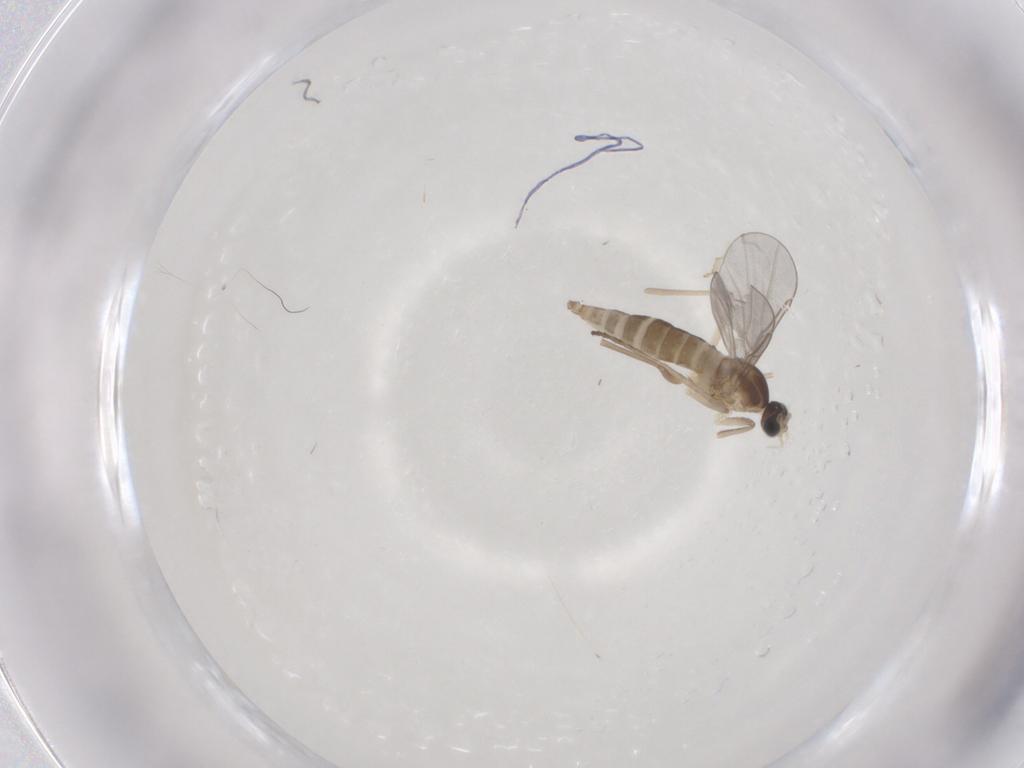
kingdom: Animalia
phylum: Arthropoda
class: Insecta
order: Diptera
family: Cecidomyiidae
